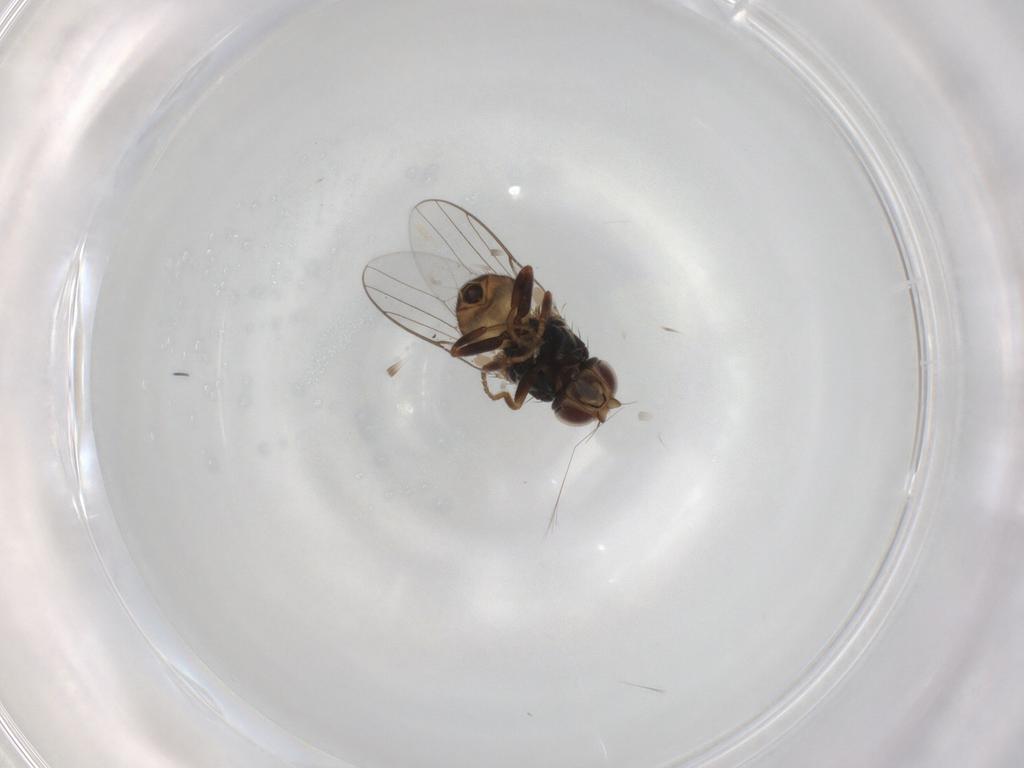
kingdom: Animalia
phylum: Arthropoda
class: Insecta
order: Diptera
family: Chloropidae
